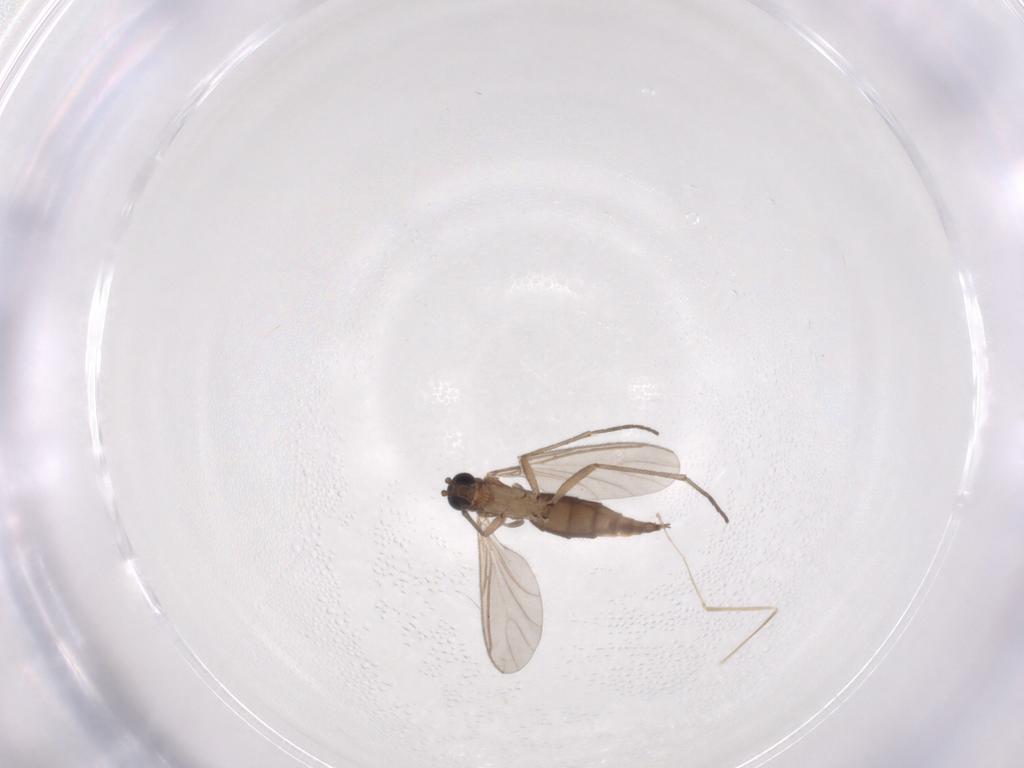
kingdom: Animalia
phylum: Arthropoda
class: Insecta
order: Diptera
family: Sciaridae
